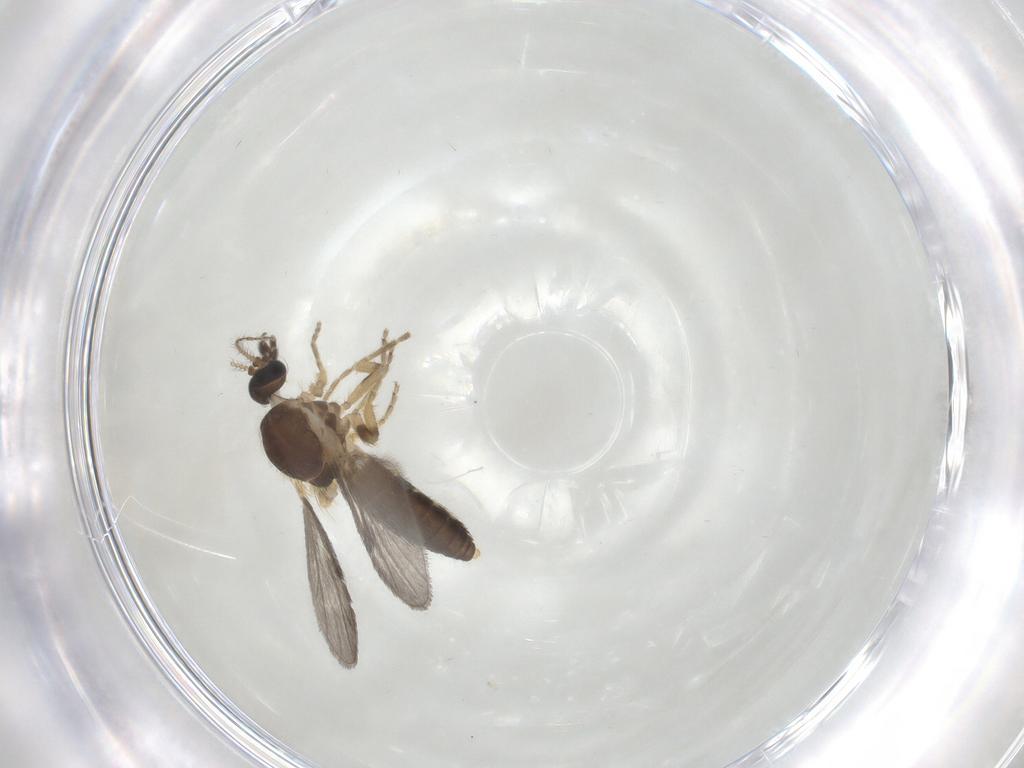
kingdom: Animalia
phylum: Arthropoda
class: Insecta
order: Diptera
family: Ceratopogonidae
